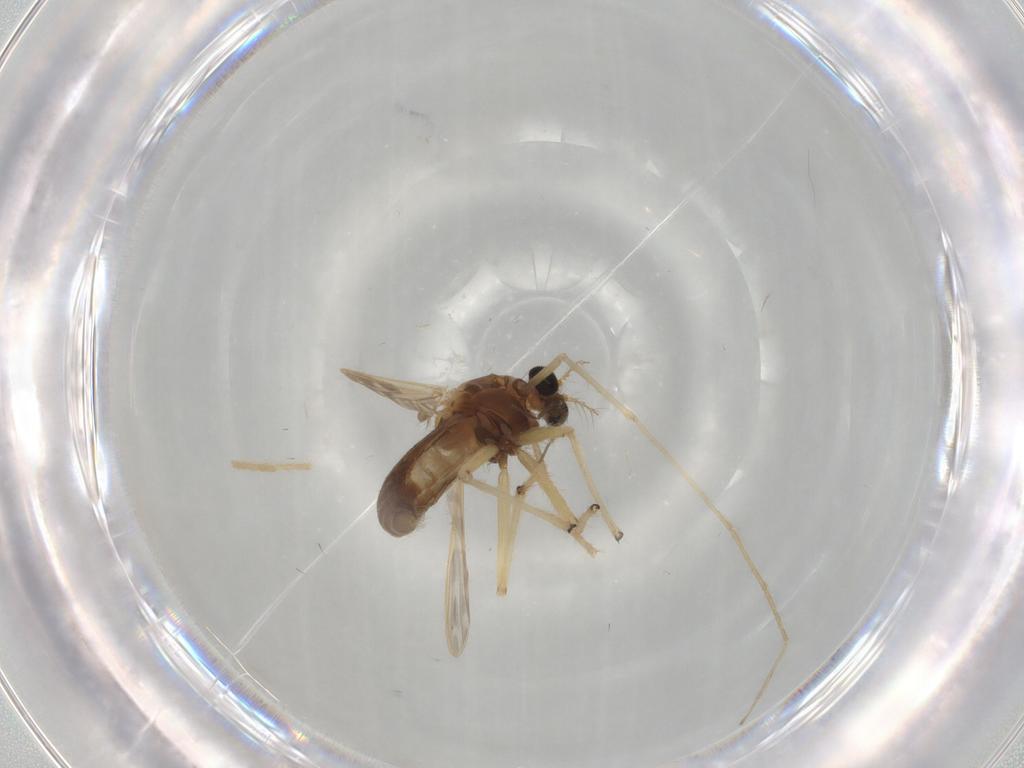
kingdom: Animalia
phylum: Arthropoda
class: Insecta
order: Diptera
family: Chironomidae
